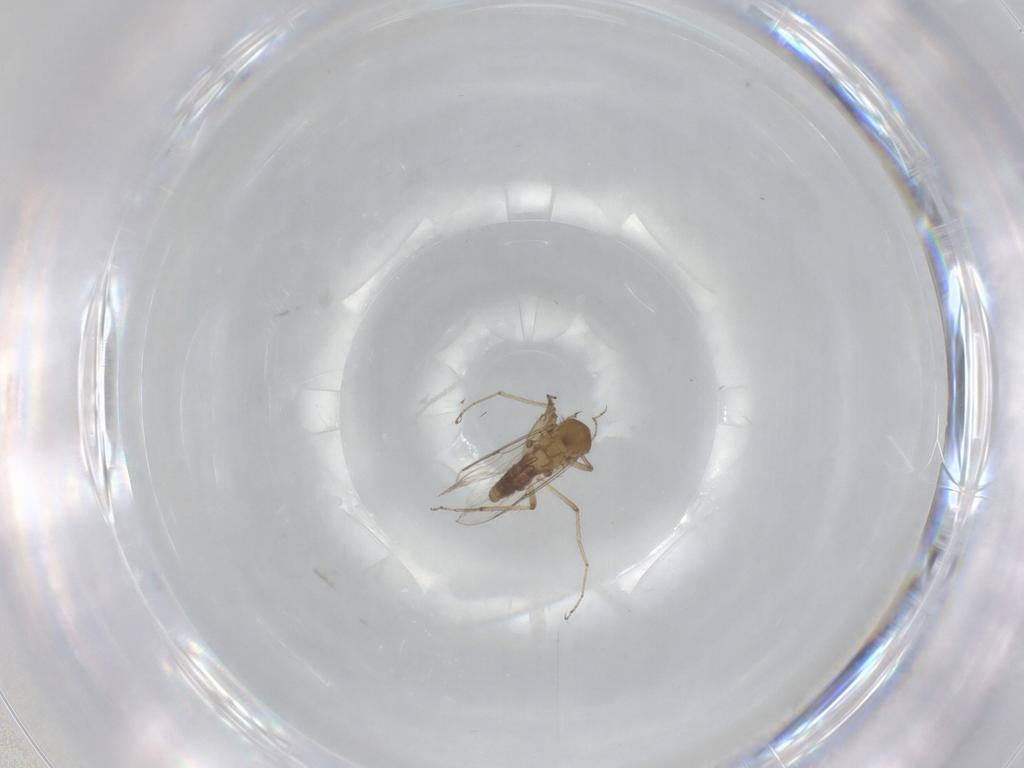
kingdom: Animalia
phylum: Arthropoda
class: Insecta
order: Diptera
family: Ceratopogonidae
